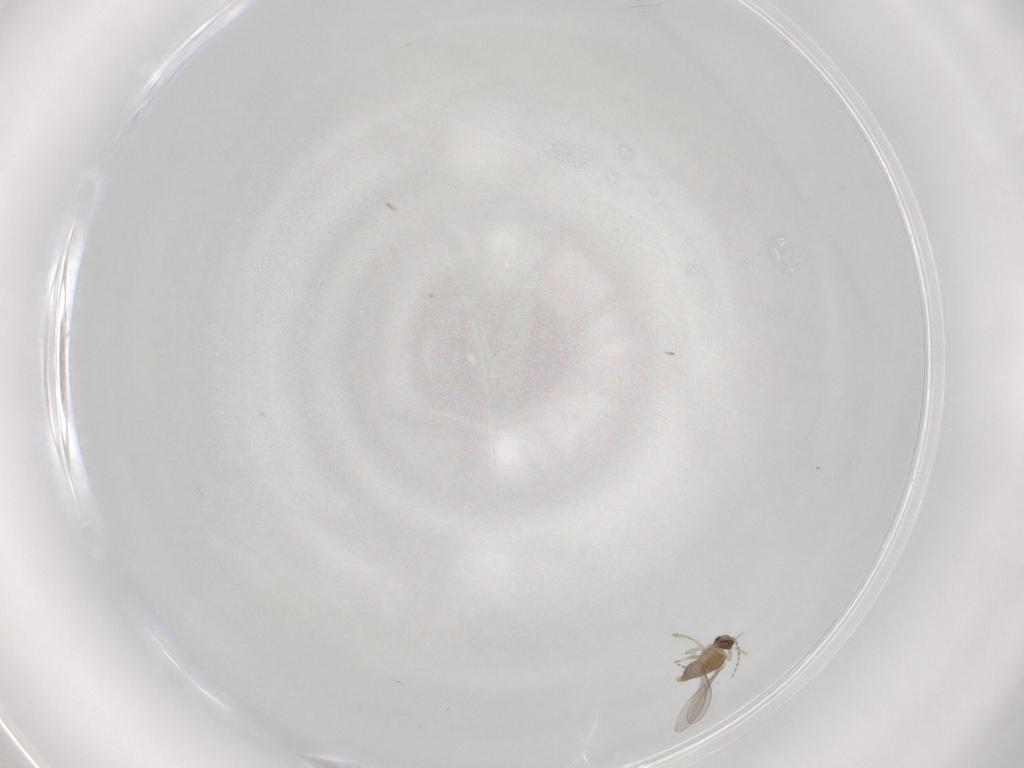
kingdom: Animalia
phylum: Arthropoda
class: Insecta
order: Diptera
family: Cecidomyiidae
